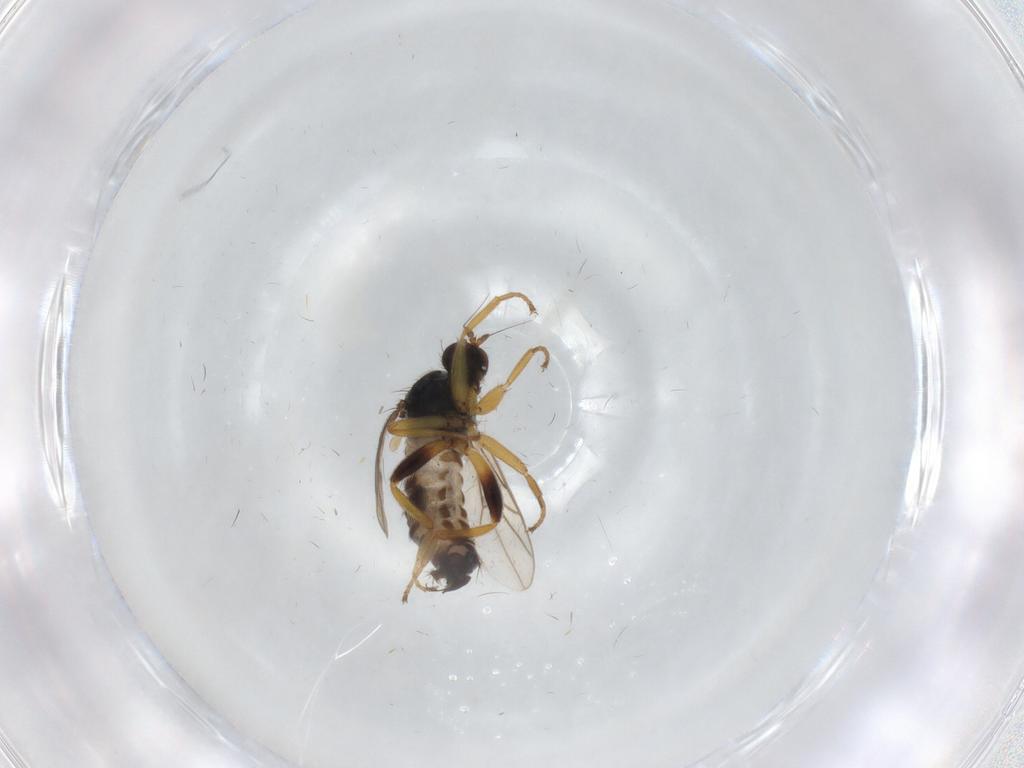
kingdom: Animalia
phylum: Arthropoda
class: Insecta
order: Diptera
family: Hybotidae
